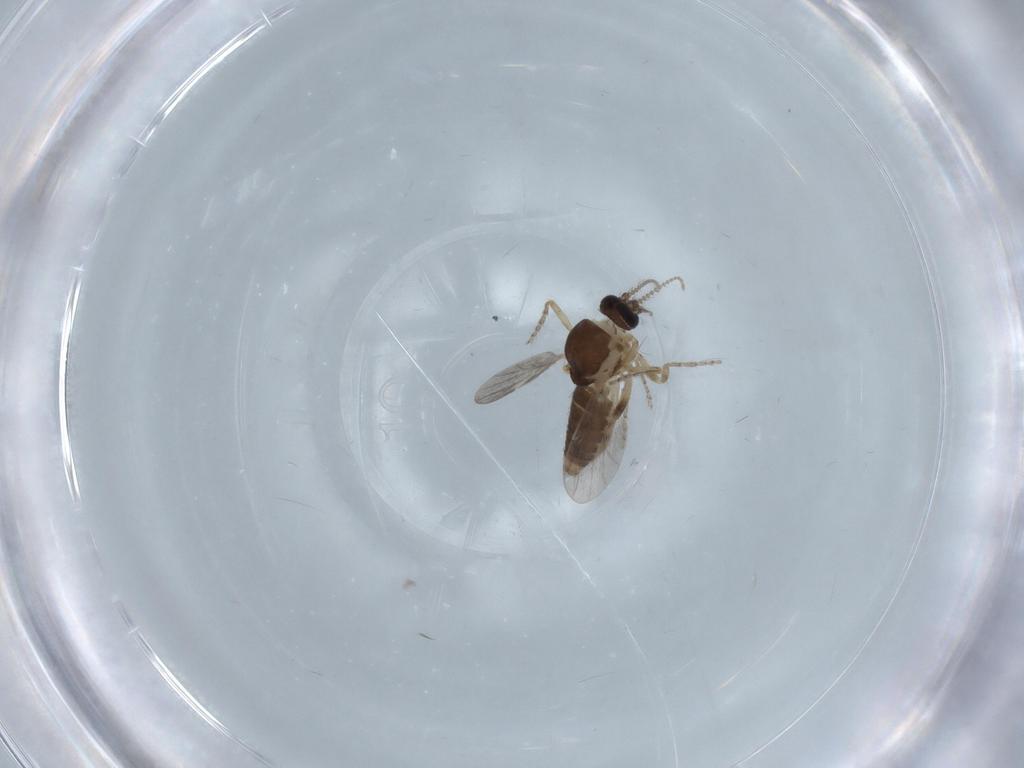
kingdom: Animalia
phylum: Arthropoda
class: Insecta
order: Diptera
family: Ceratopogonidae
